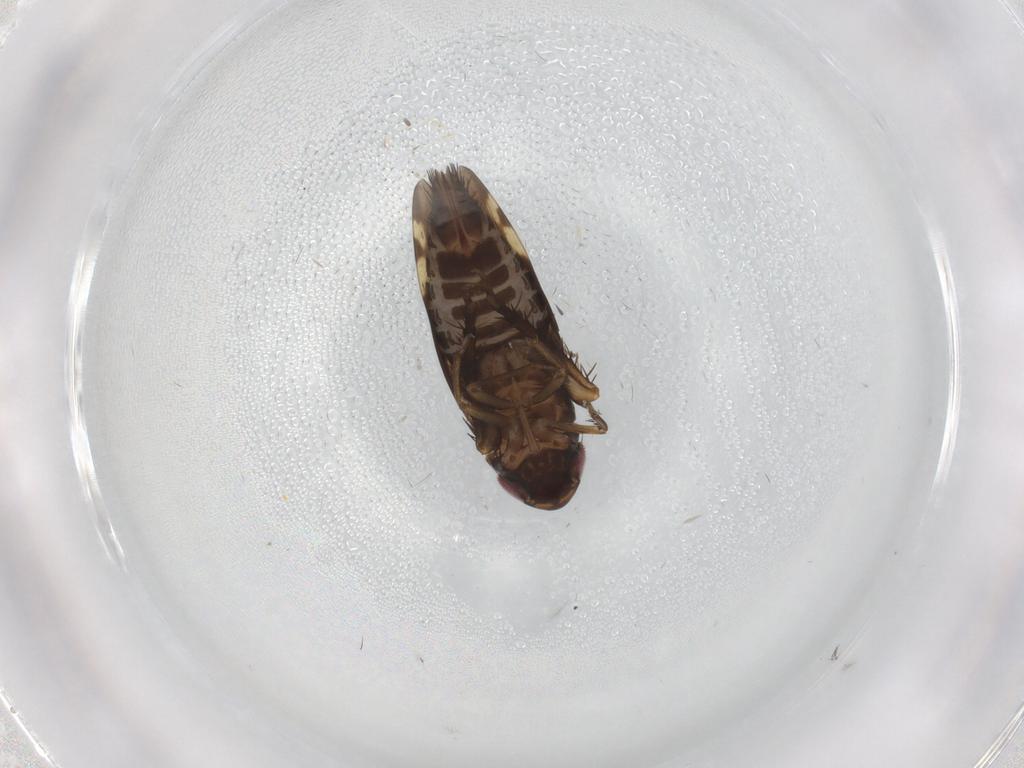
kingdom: Animalia
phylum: Arthropoda
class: Insecta
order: Hemiptera
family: Cicadellidae
